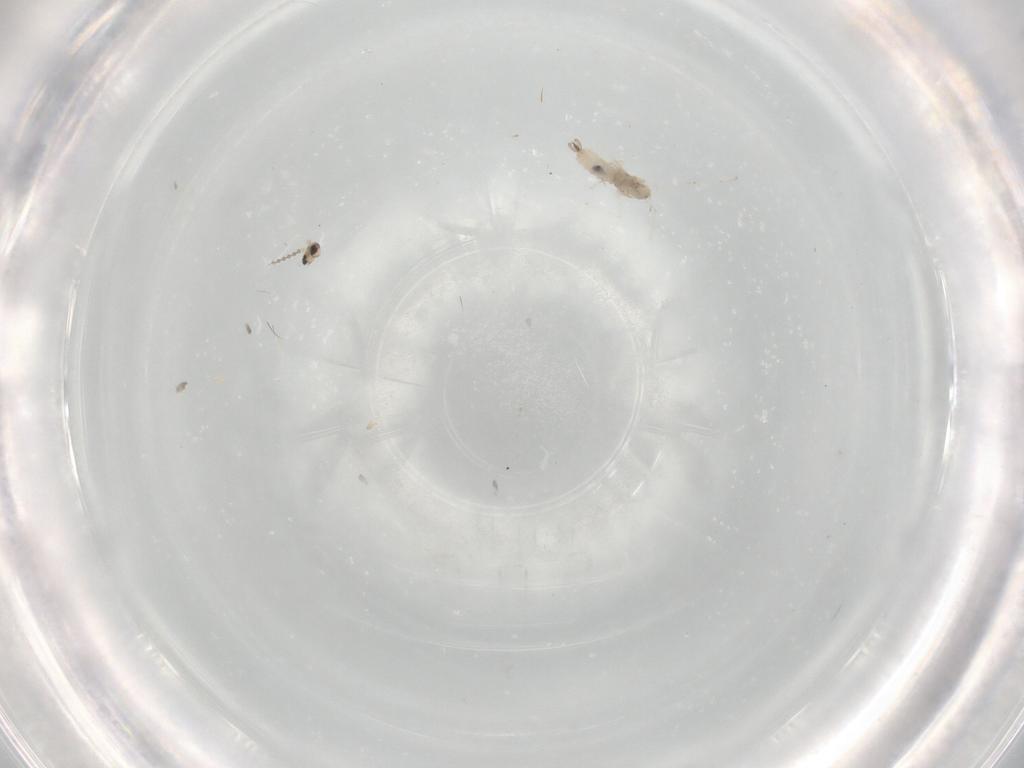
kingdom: Animalia
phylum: Arthropoda
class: Insecta
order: Diptera
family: Cecidomyiidae
